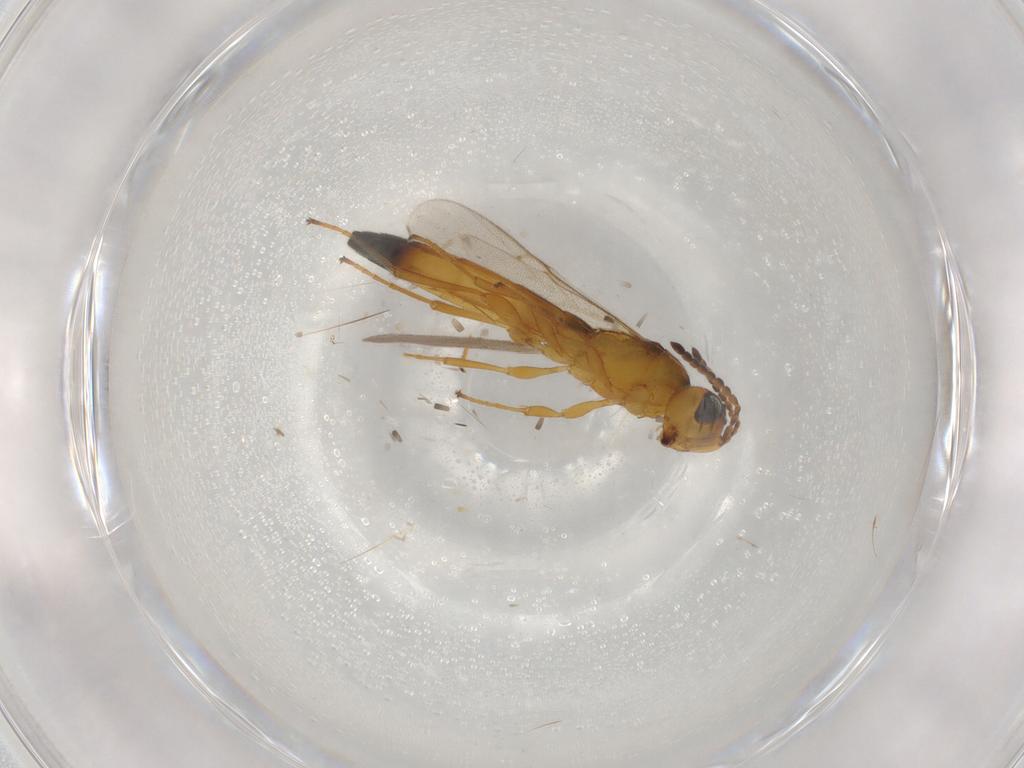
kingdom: Animalia
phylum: Arthropoda
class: Insecta
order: Hymenoptera
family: Scelionidae
